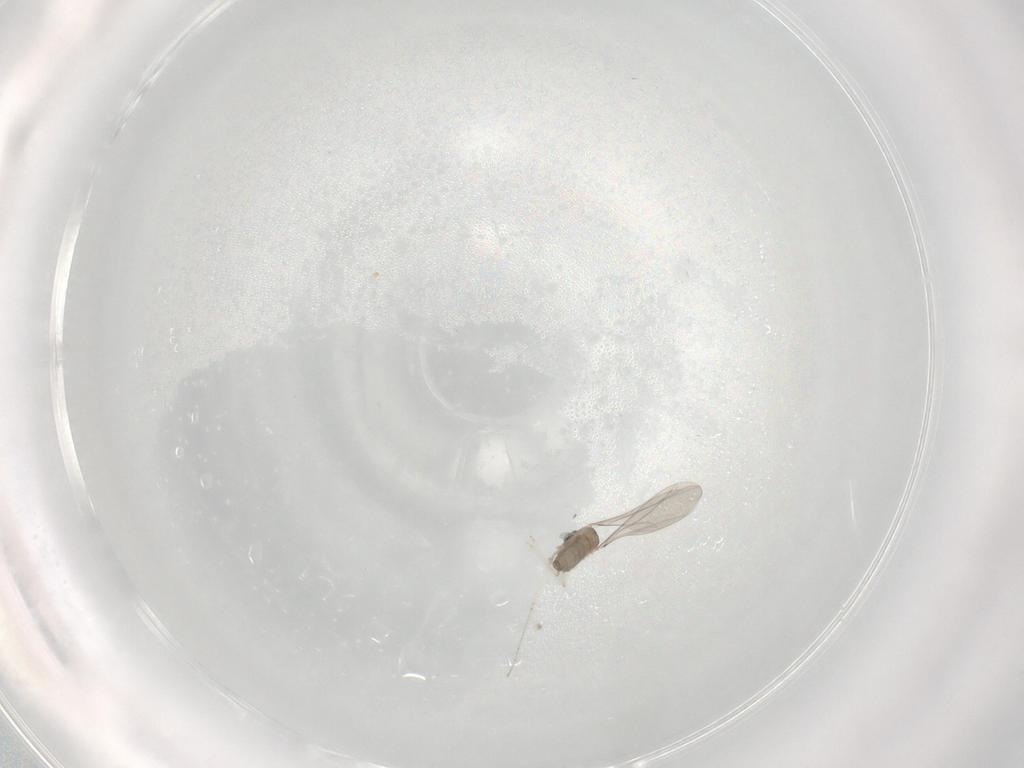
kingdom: Animalia
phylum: Arthropoda
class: Insecta
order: Diptera
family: Cecidomyiidae
